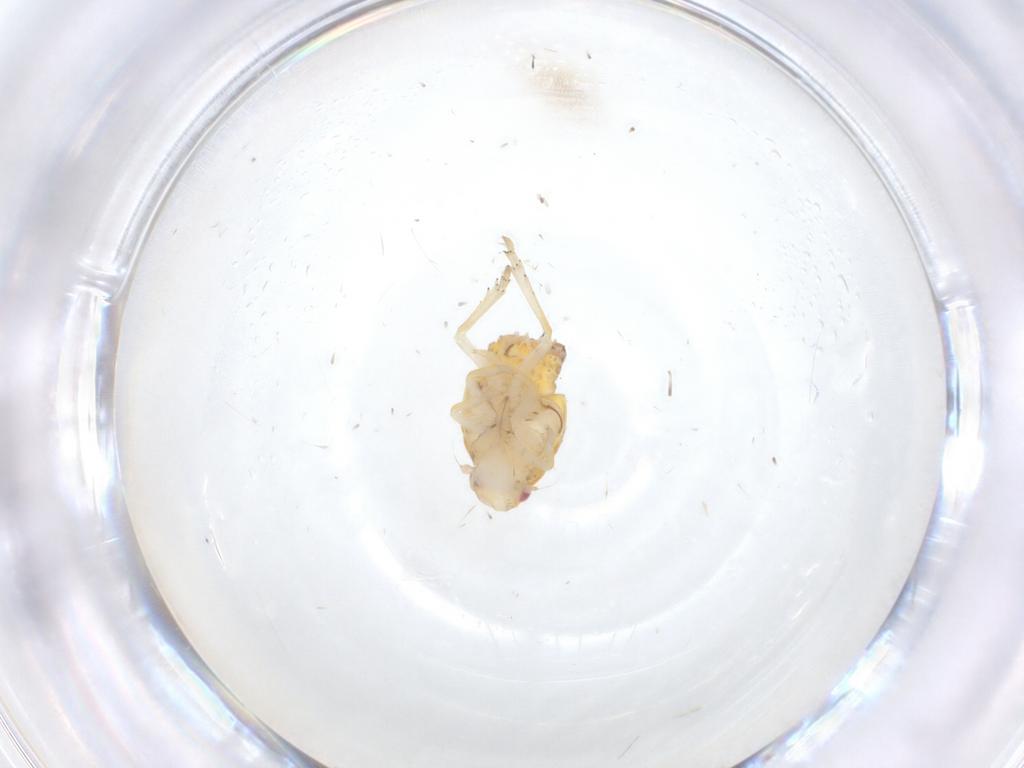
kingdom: Animalia
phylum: Arthropoda
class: Insecta
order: Hemiptera
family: Ricaniidae
